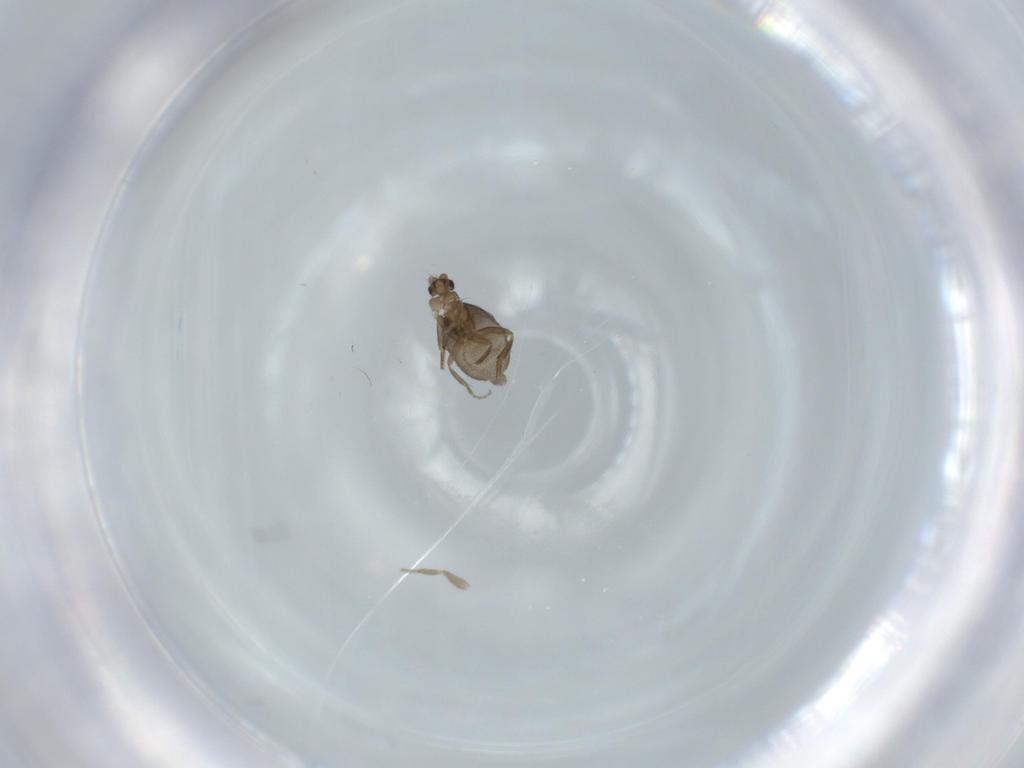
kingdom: Animalia
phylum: Arthropoda
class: Insecta
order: Diptera
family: Phoridae
